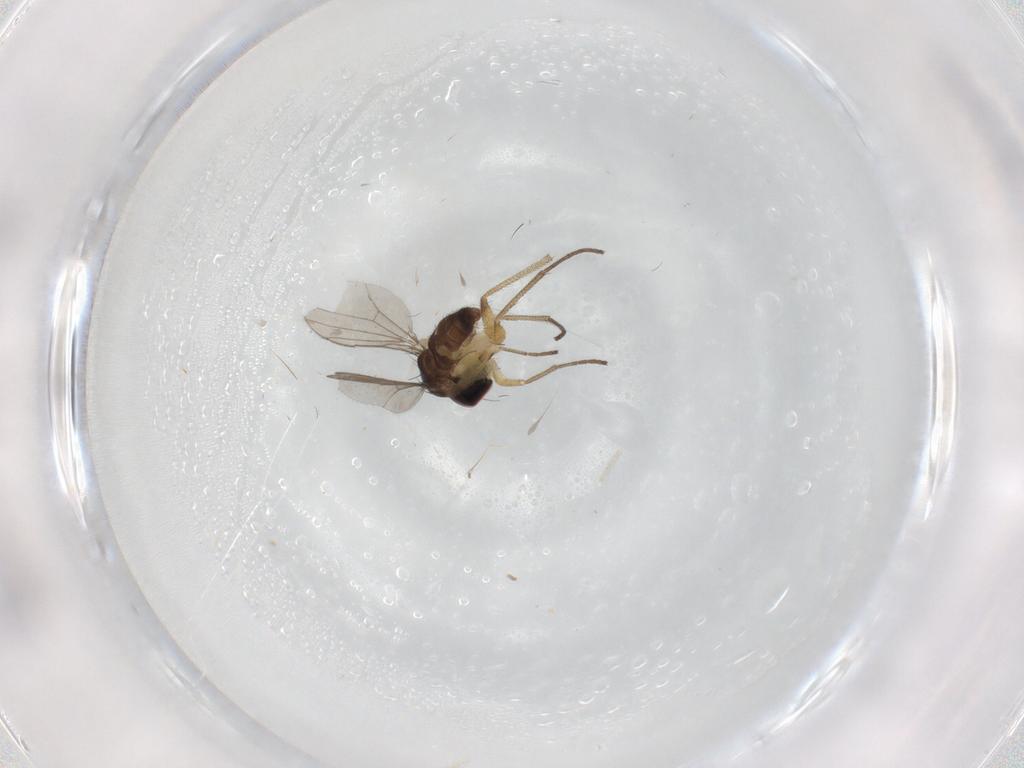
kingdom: Animalia
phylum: Arthropoda
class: Insecta
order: Diptera
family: Dolichopodidae
